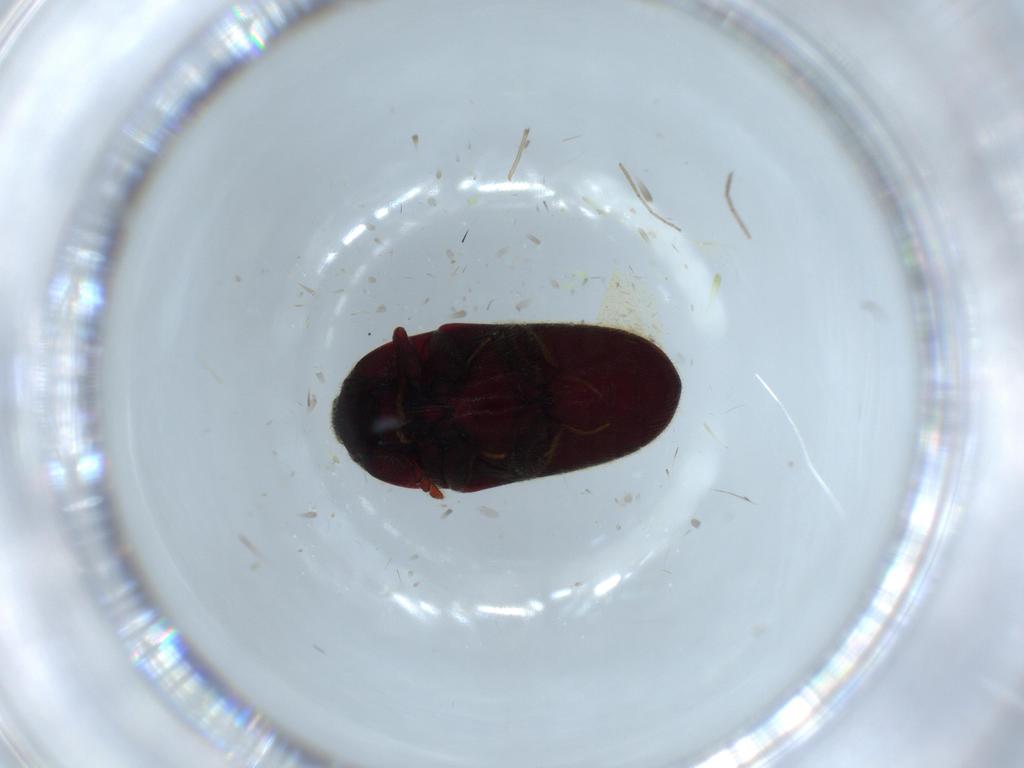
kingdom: Animalia
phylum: Arthropoda
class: Insecta
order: Coleoptera
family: Throscidae
